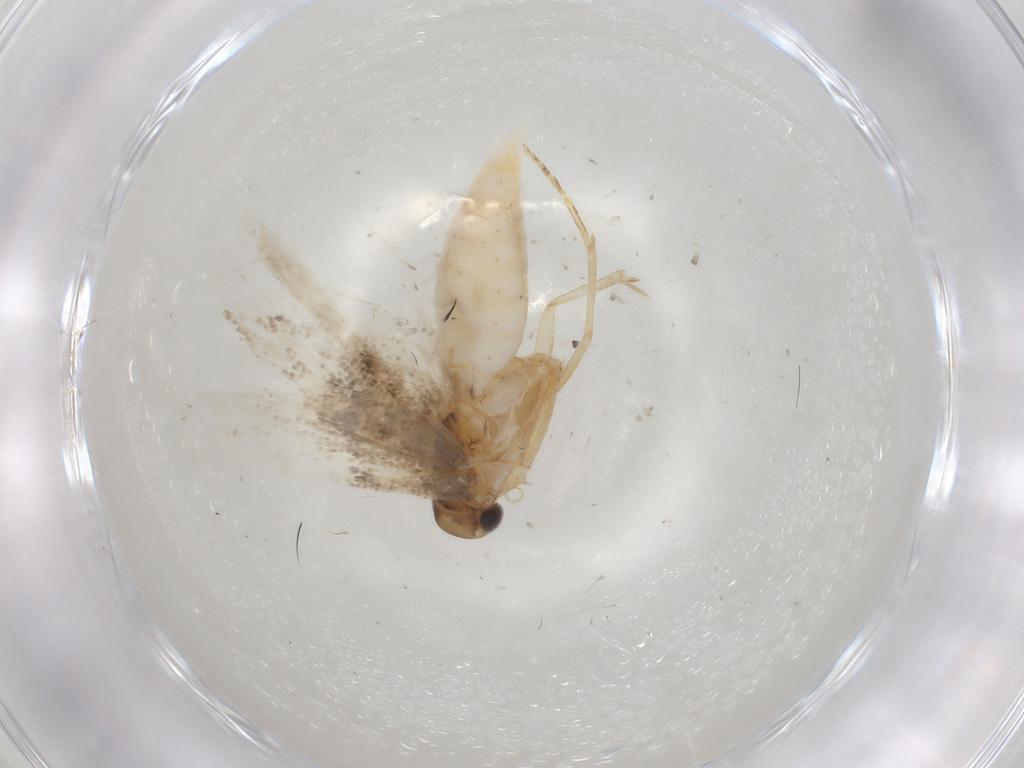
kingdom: Animalia
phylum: Arthropoda
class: Insecta
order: Lepidoptera
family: Gelechiidae
